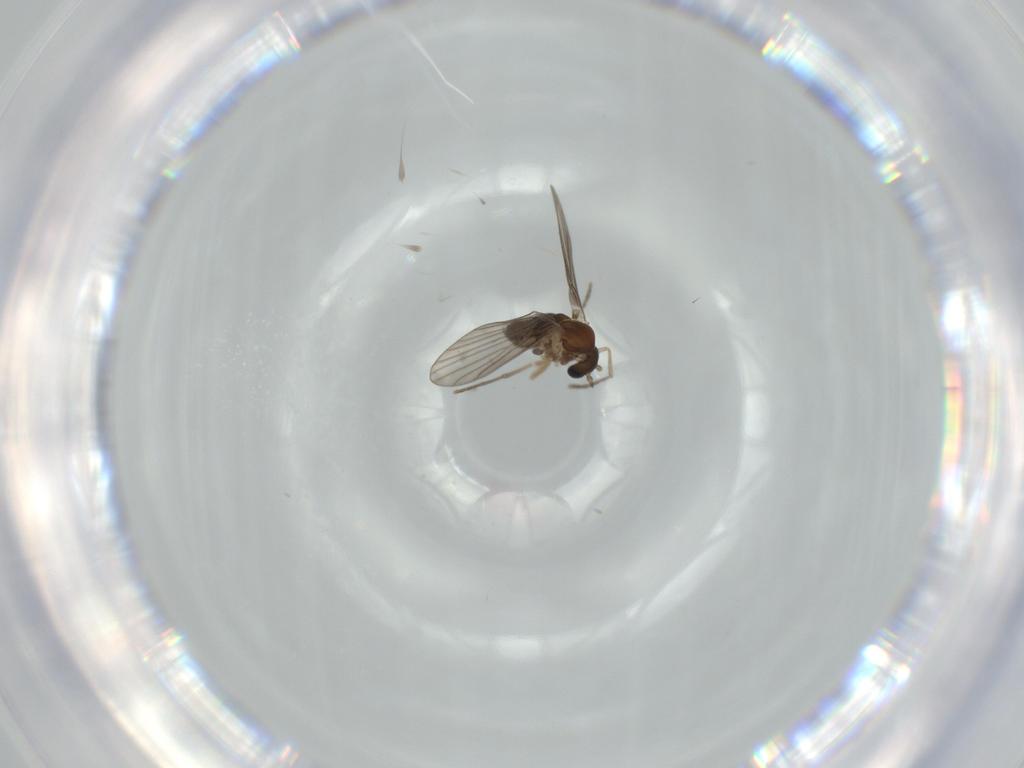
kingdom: Animalia
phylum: Arthropoda
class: Insecta
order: Diptera
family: Psychodidae
